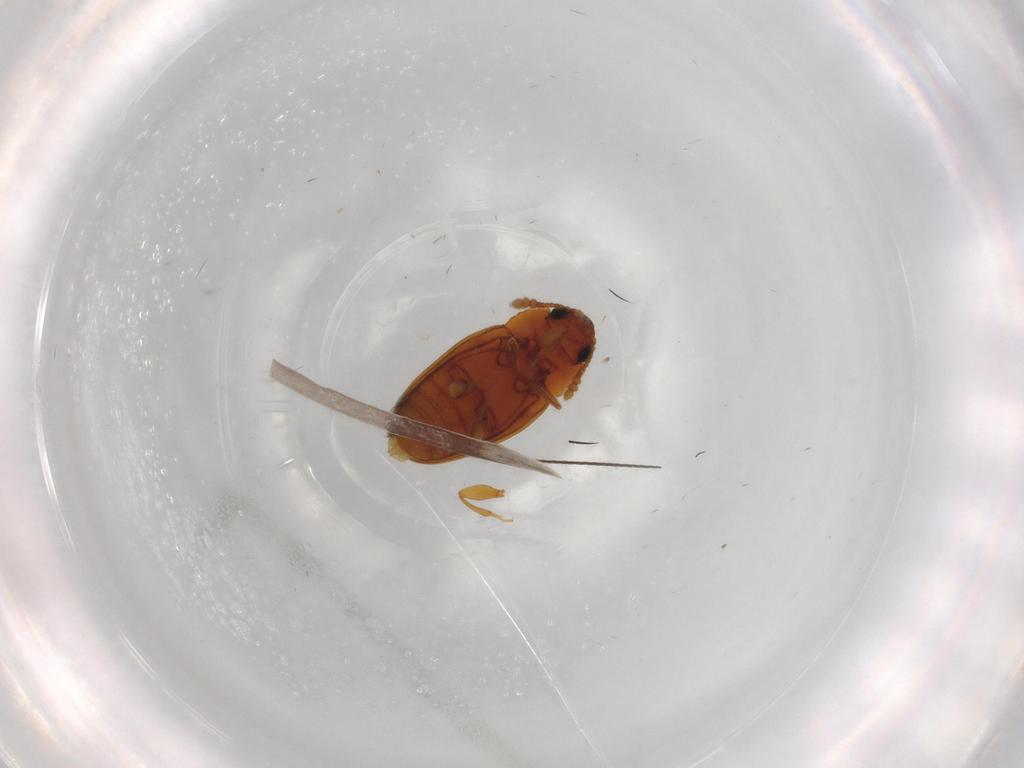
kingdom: Animalia
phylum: Arthropoda
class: Insecta
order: Coleoptera
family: Erotylidae
